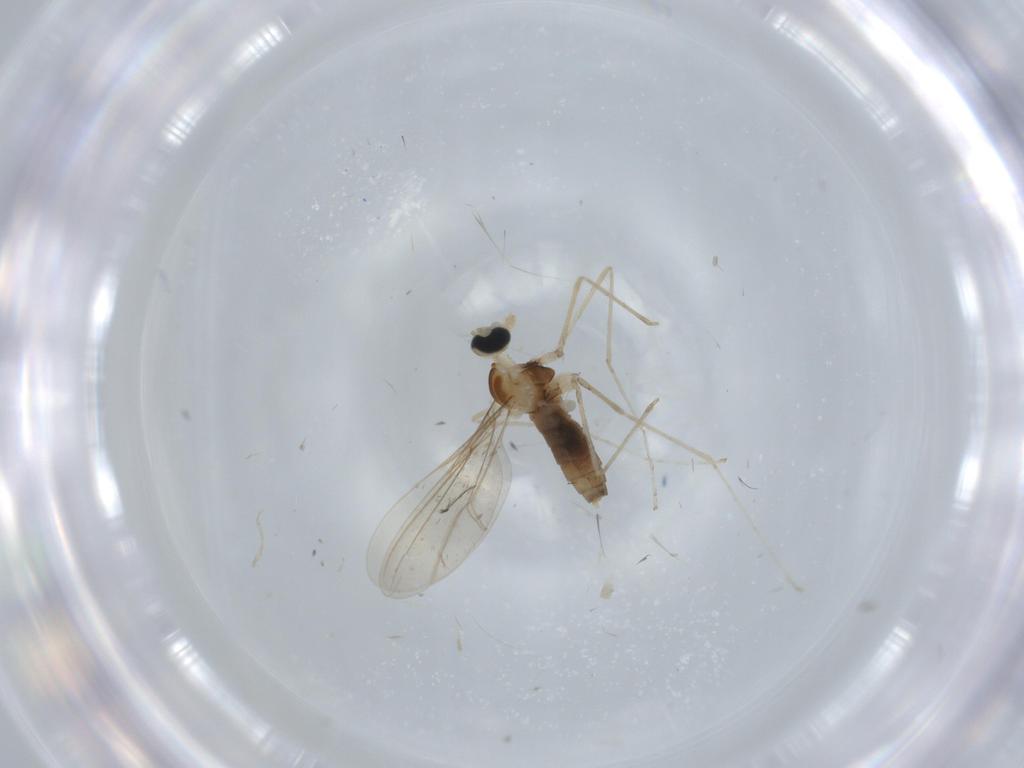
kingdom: Animalia
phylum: Arthropoda
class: Insecta
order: Diptera
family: Cecidomyiidae
